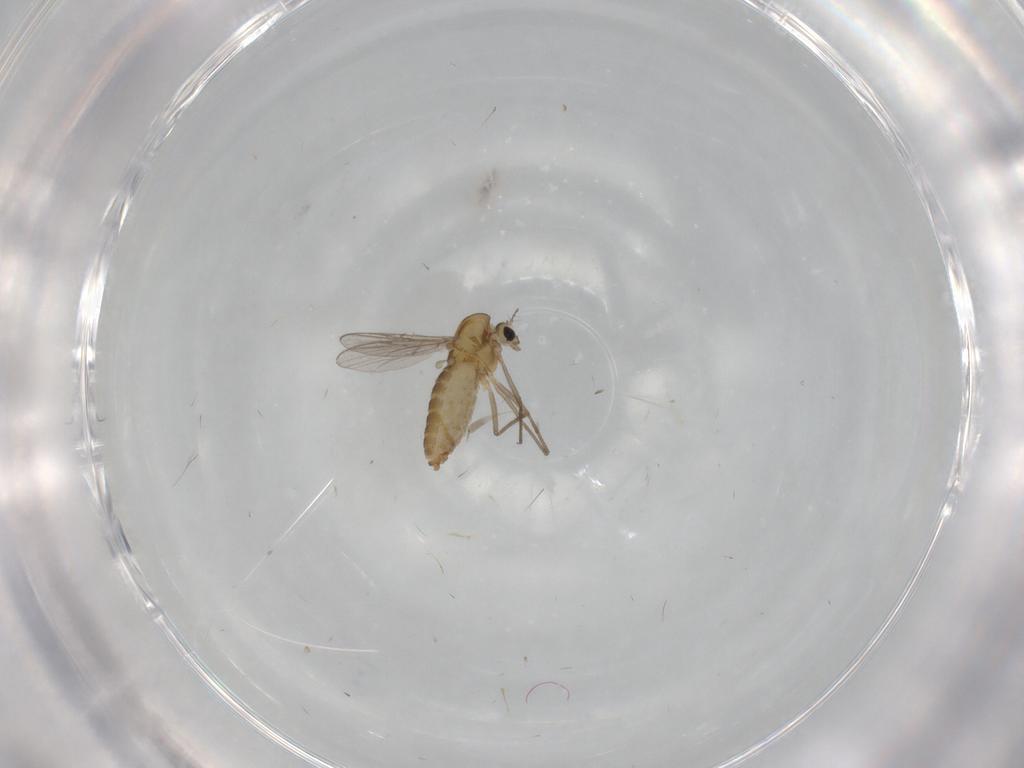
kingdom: Animalia
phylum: Arthropoda
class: Insecta
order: Diptera
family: Chironomidae
